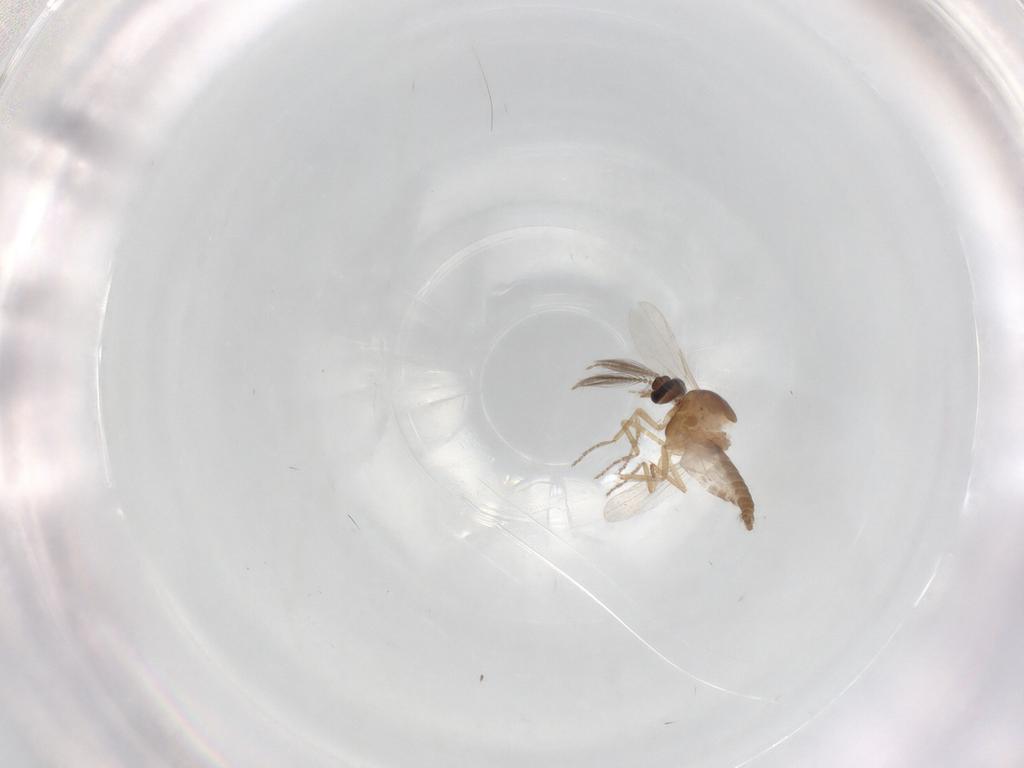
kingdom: Animalia
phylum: Arthropoda
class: Insecta
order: Diptera
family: Ceratopogonidae
